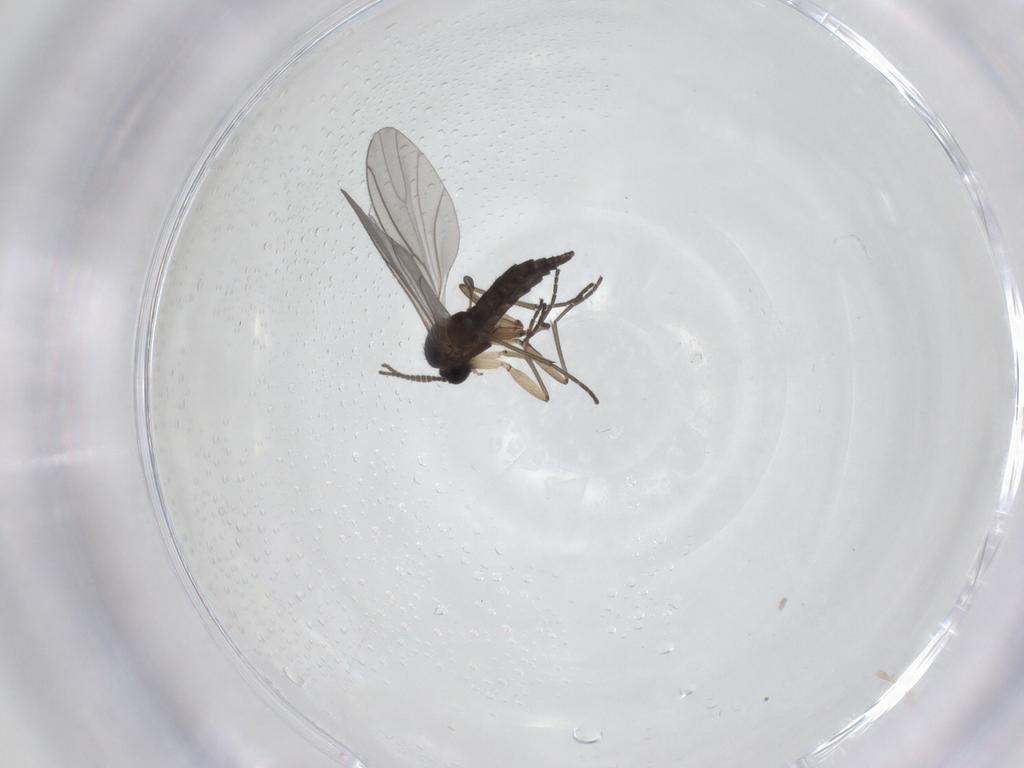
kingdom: Animalia
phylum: Arthropoda
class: Insecta
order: Diptera
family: Sciaridae
